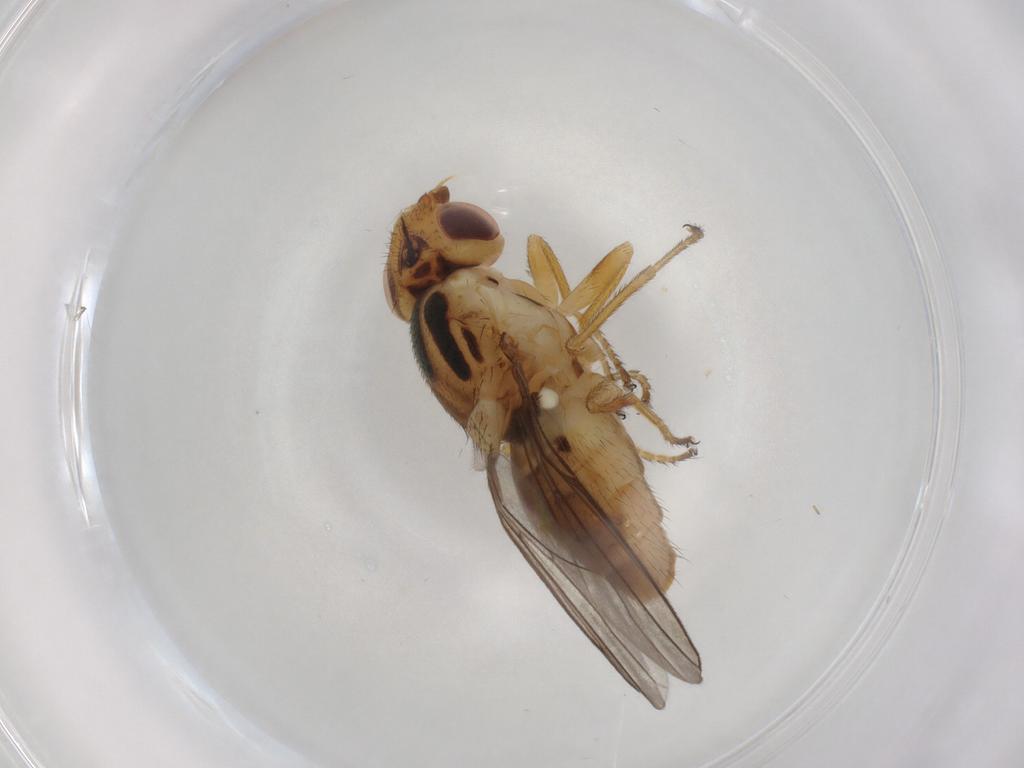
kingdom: Animalia
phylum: Arthropoda
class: Insecta
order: Diptera
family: Chloropidae
